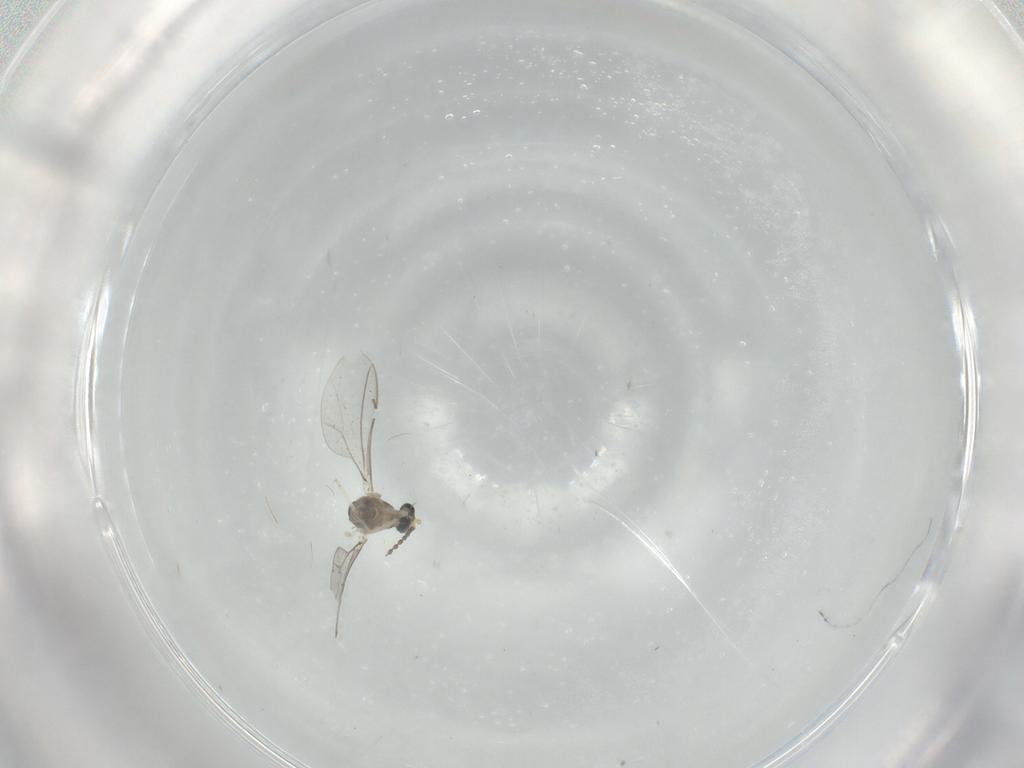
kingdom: Animalia
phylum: Arthropoda
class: Insecta
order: Diptera
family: Cecidomyiidae
